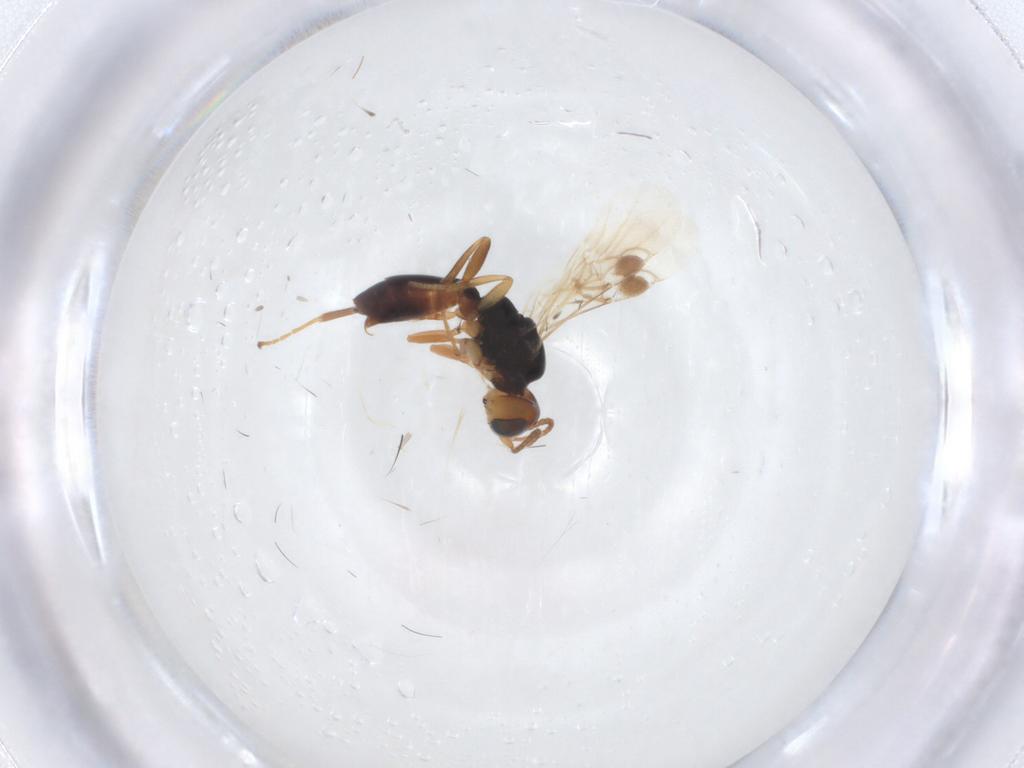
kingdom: Animalia
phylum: Arthropoda
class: Insecta
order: Hymenoptera
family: Braconidae
